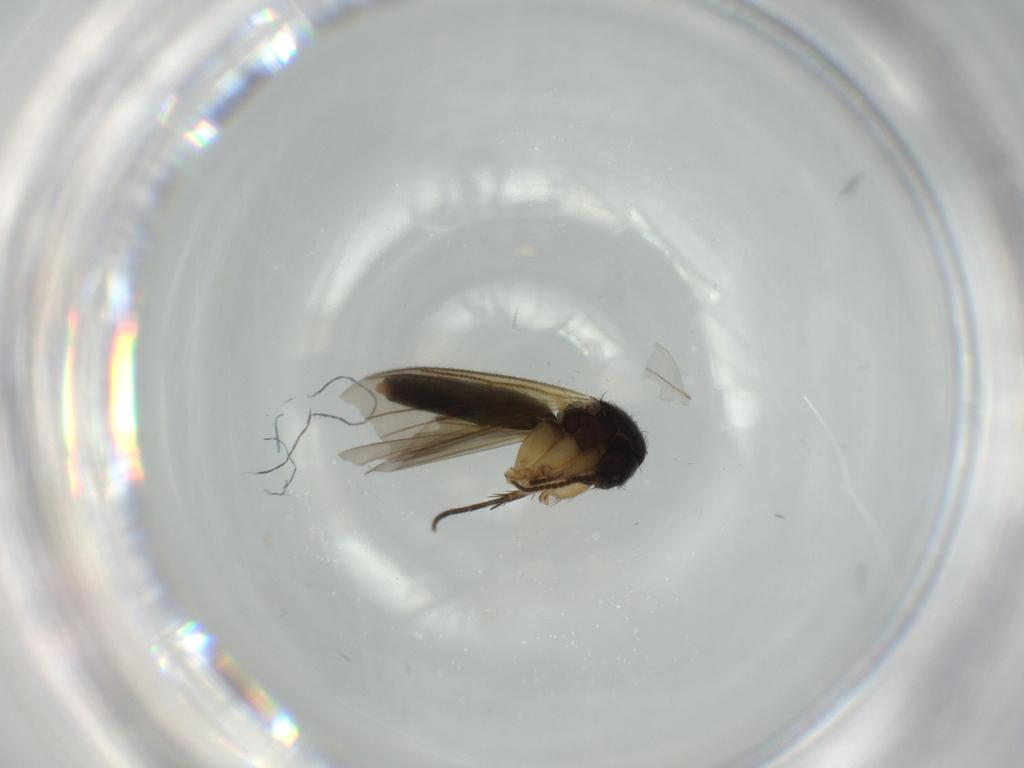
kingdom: Animalia
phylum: Arthropoda
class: Insecta
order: Diptera
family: Mycetophilidae
